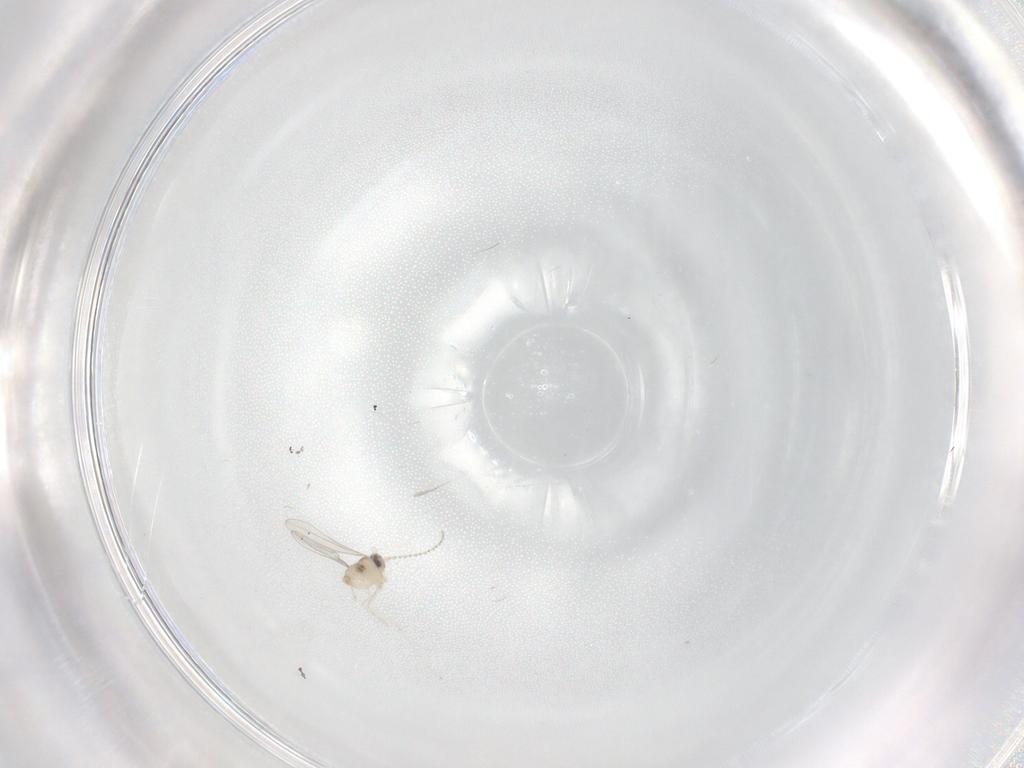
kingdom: Animalia
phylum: Arthropoda
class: Insecta
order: Diptera
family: Cecidomyiidae
